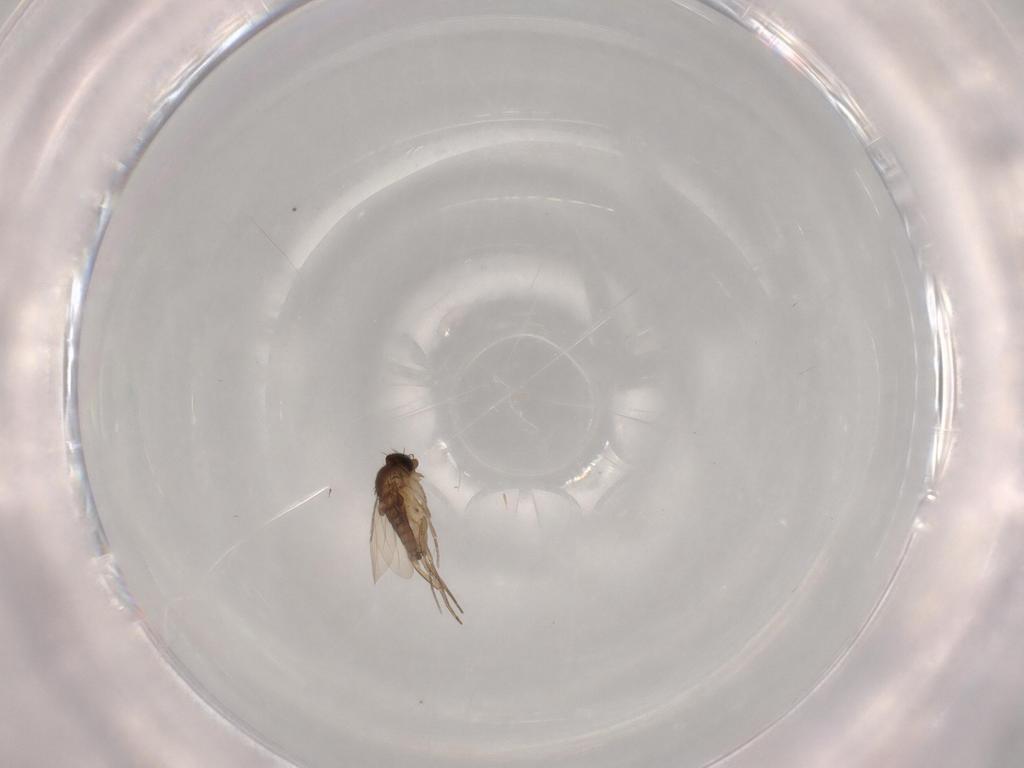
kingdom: Animalia
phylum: Arthropoda
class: Insecta
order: Diptera
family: Phoridae
